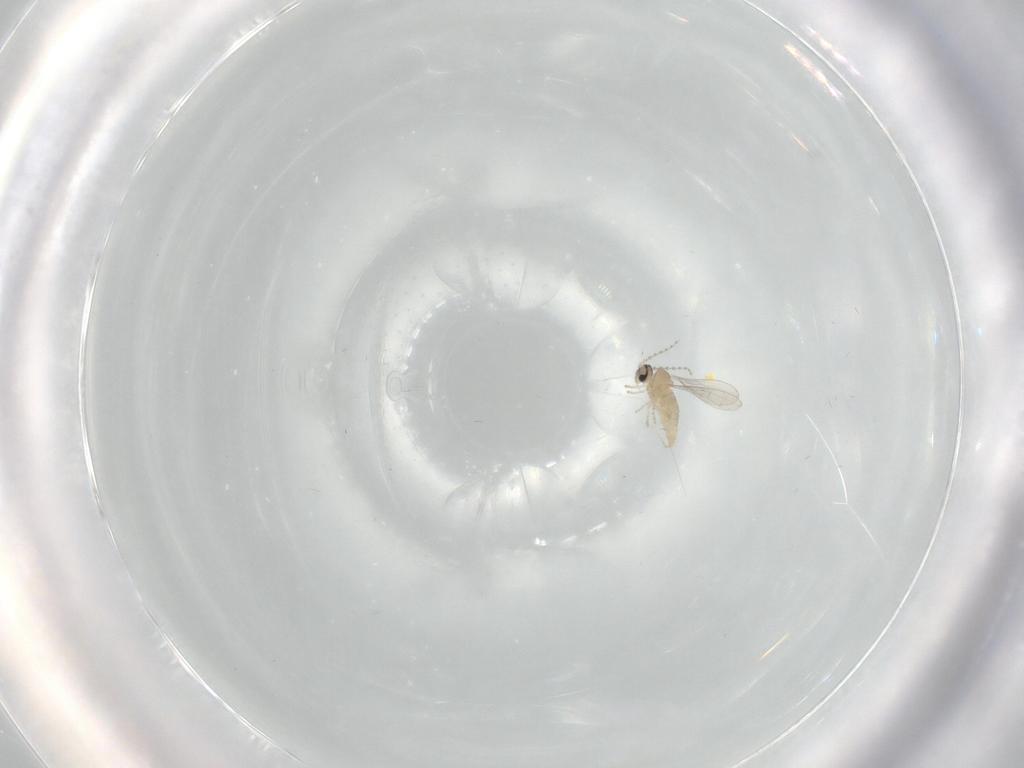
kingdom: Animalia
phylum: Arthropoda
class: Insecta
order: Diptera
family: Cecidomyiidae
